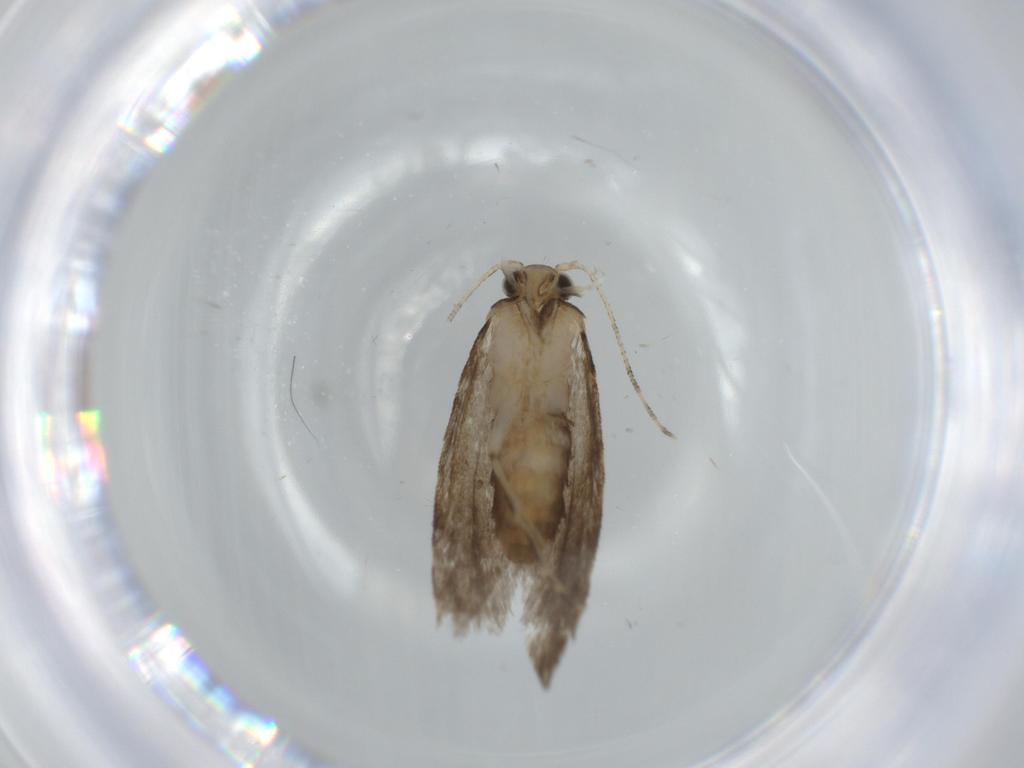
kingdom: Animalia
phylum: Arthropoda
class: Insecta
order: Lepidoptera
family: Tineidae
